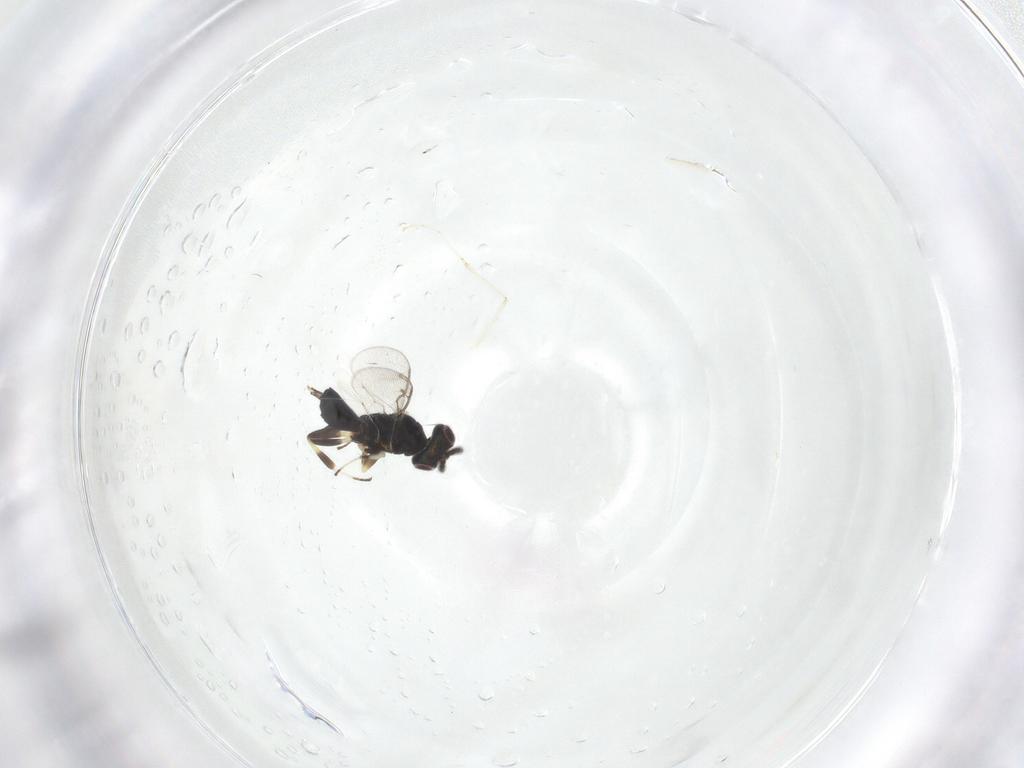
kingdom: Animalia
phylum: Arthropoda
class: Insecta
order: Hymenoptera
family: Eupelmidae
